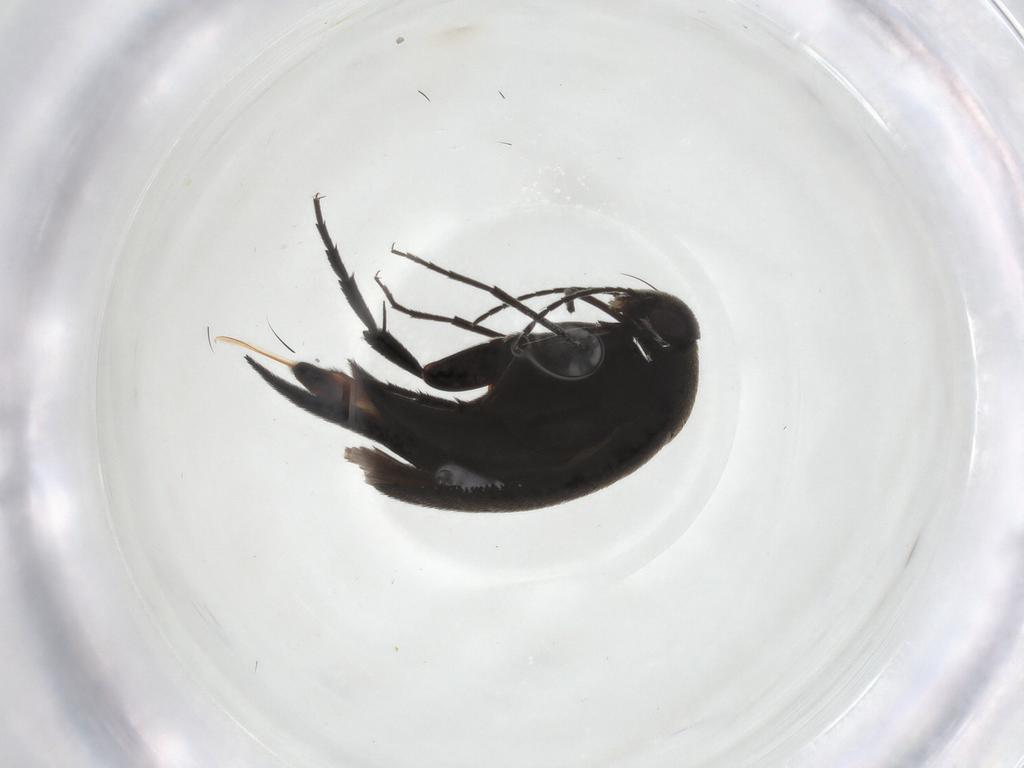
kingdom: Animalia
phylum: Arthropoda
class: Insecta
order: Coleoptera
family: Mordellidae
